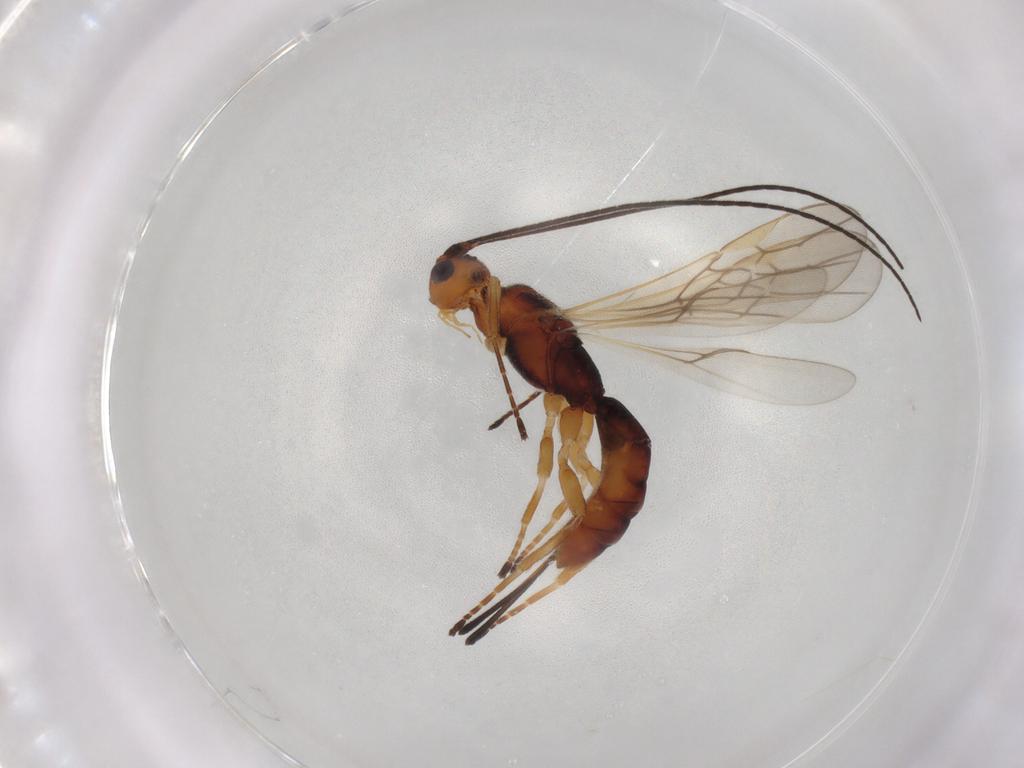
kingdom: Animalia
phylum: Arthropoda
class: Insecta
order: Hymenoptera
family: Braconidae
